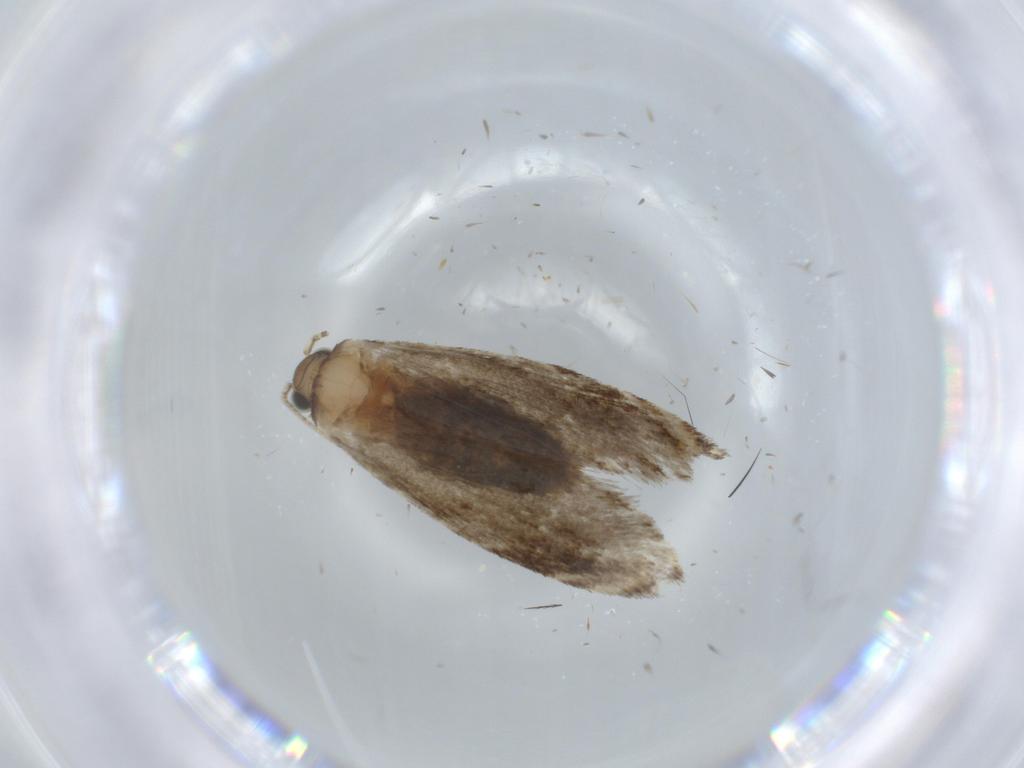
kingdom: Animalia
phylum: Arthropoda
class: Insecta
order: Lepidoptera
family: Tineidae
